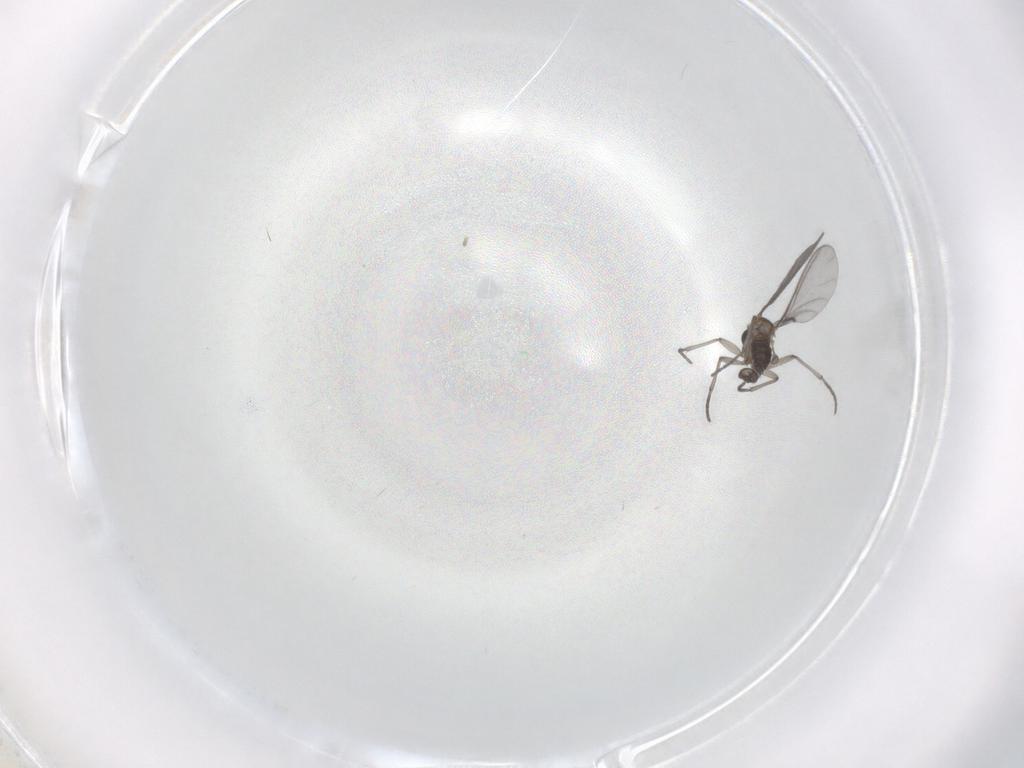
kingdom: Animalia
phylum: Arthropoda
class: Insecta
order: Diptera
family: Sciaridae
